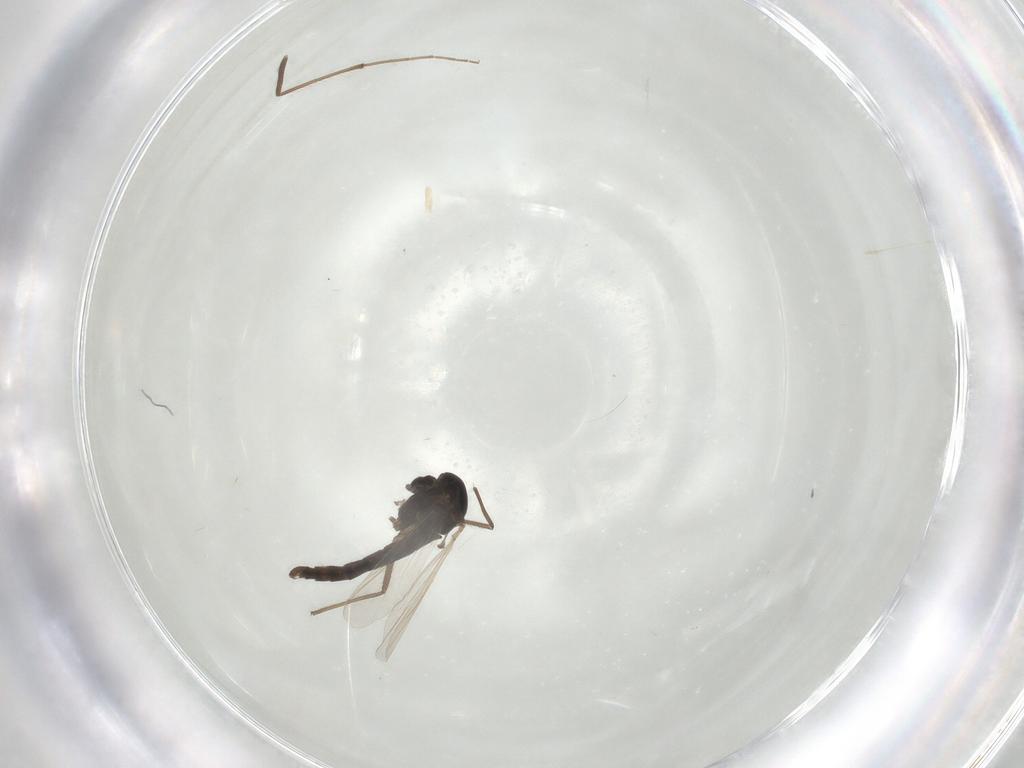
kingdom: Animalia
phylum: Arthropoda
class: Insecta
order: Diptera
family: Chironomidae
